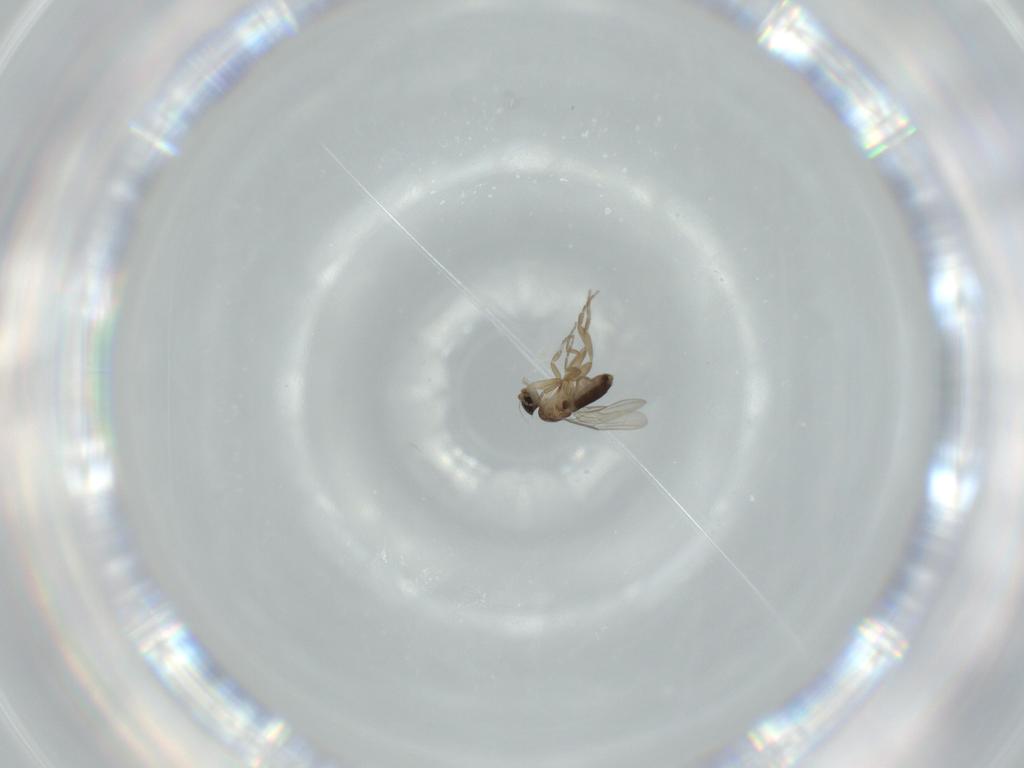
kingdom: Animalia
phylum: Arthropoda
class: Insecta
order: Diptera
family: Phoridae
